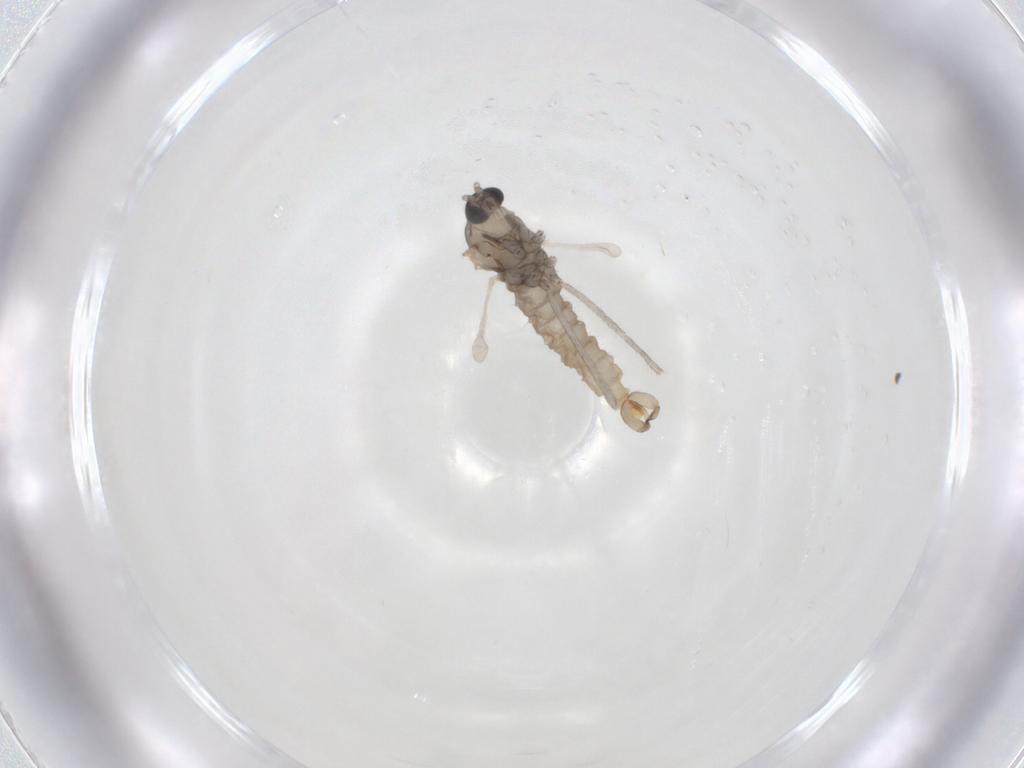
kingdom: Animalia
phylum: Arthropoda
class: Insecta
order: Diptera
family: Cecidomyiidae
